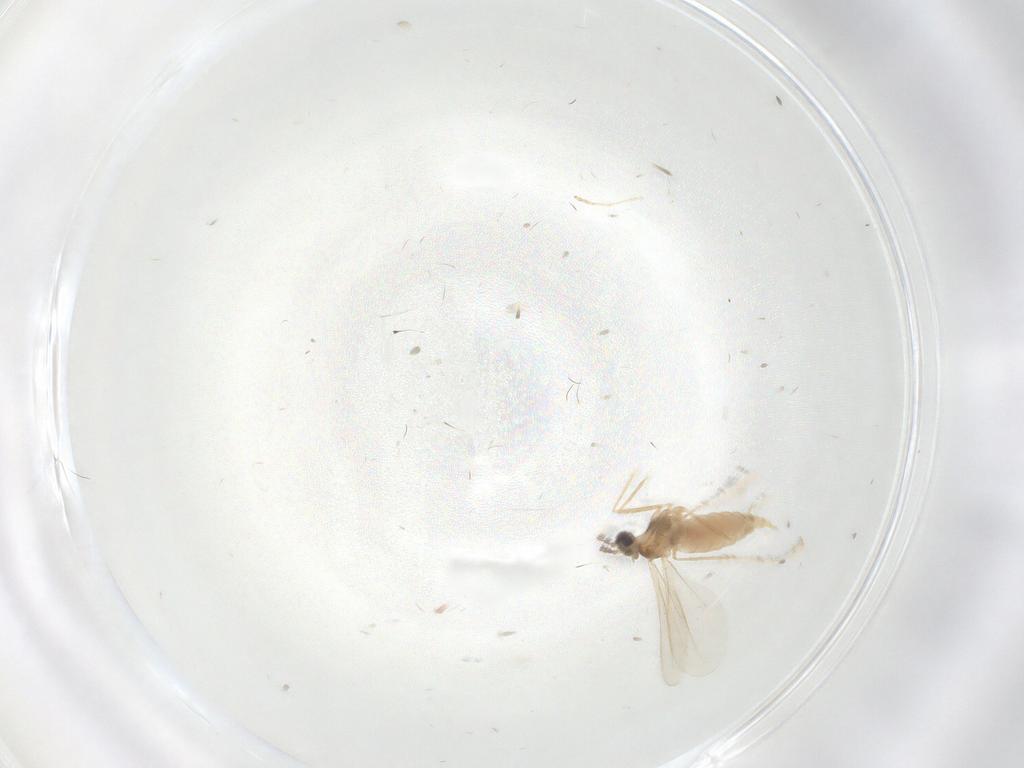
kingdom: Animalia
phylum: Arthropoda
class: Insecta
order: Diptera
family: Cecidomyiidae
